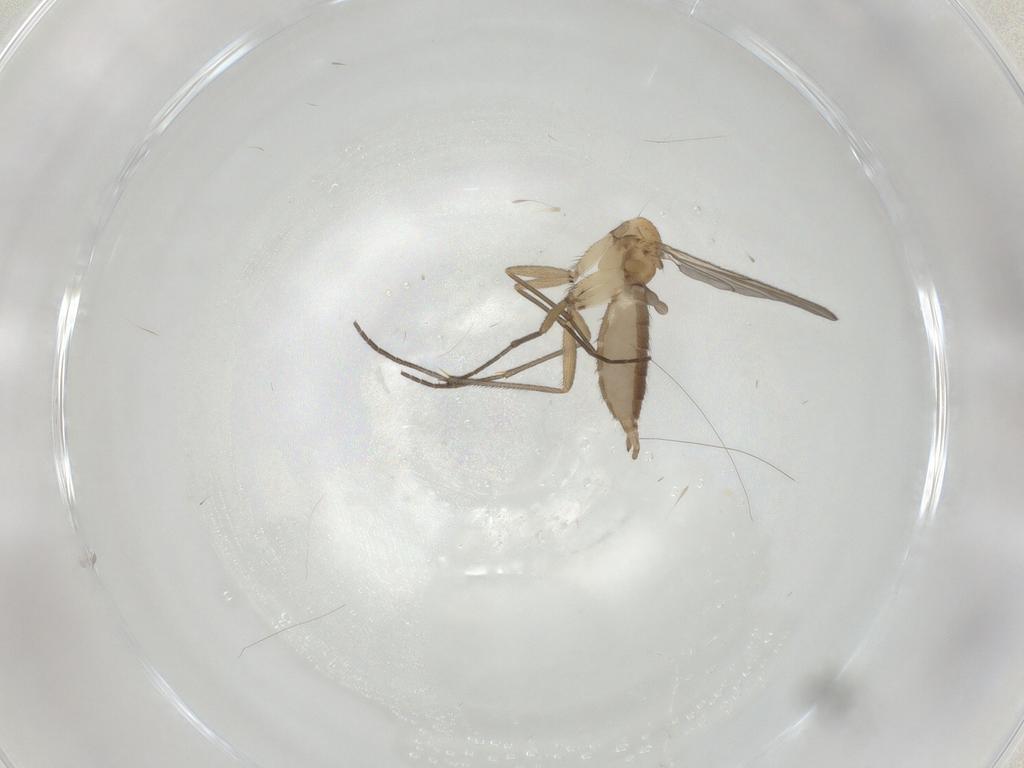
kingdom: Animalia
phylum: Arthropoda
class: Insecta
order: Diptera
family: Sciaridae
